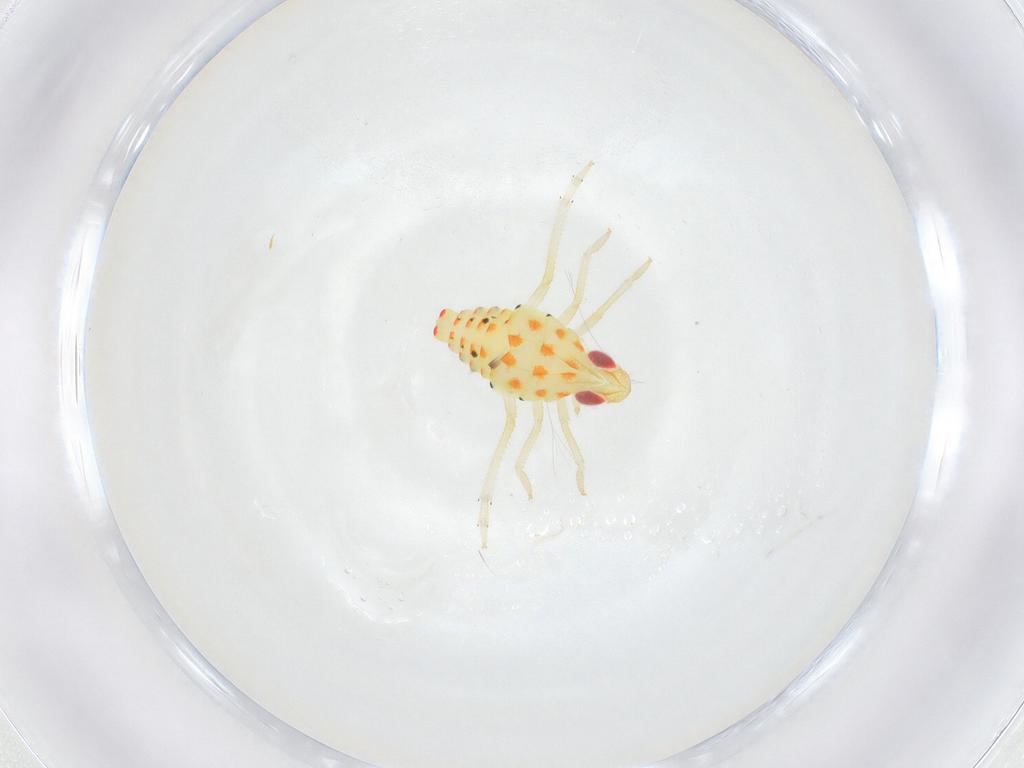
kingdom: Animalia
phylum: Arthropoda
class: Insecta
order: Hemiptera
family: Tropiduchidae
